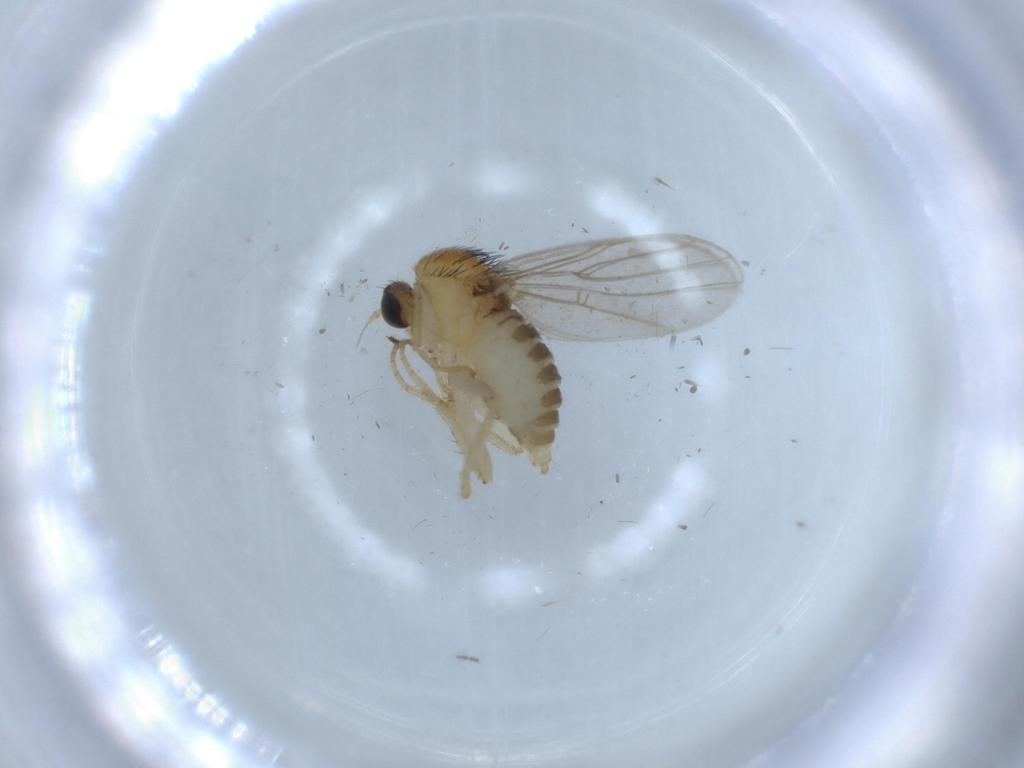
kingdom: Animalia
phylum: Arthropoda
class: Insecta
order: Diptera
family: Hybotidae
